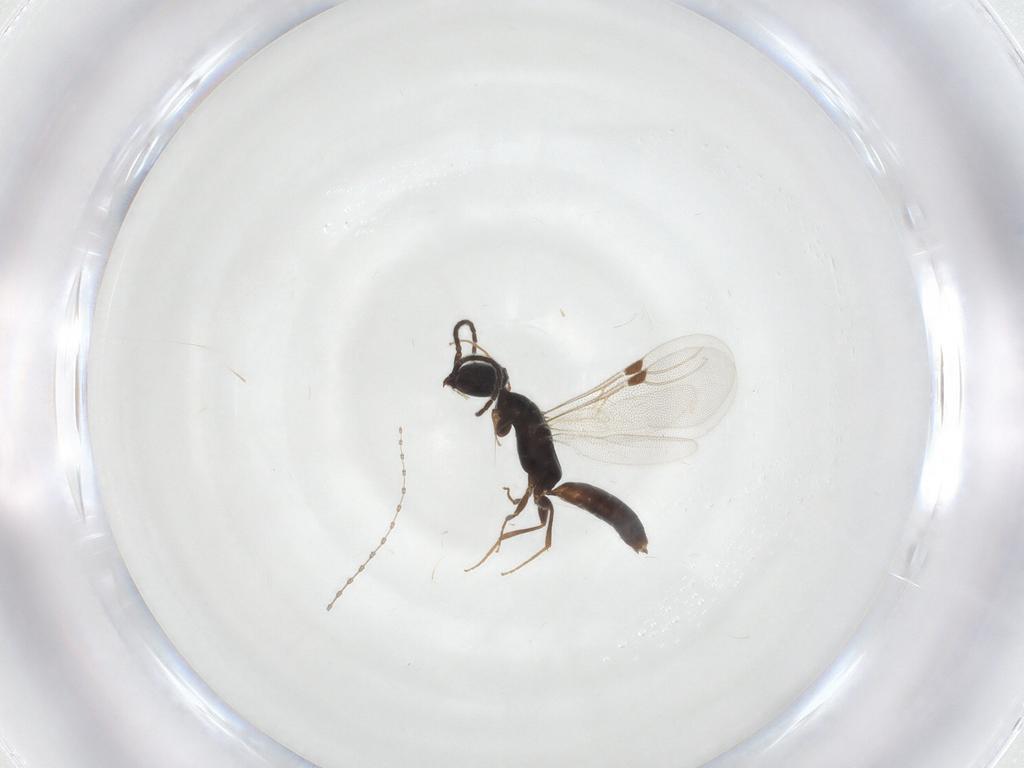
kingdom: Animalia
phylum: Arthropoda
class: Insecta
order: Hymenoptera
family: Bethylidae
